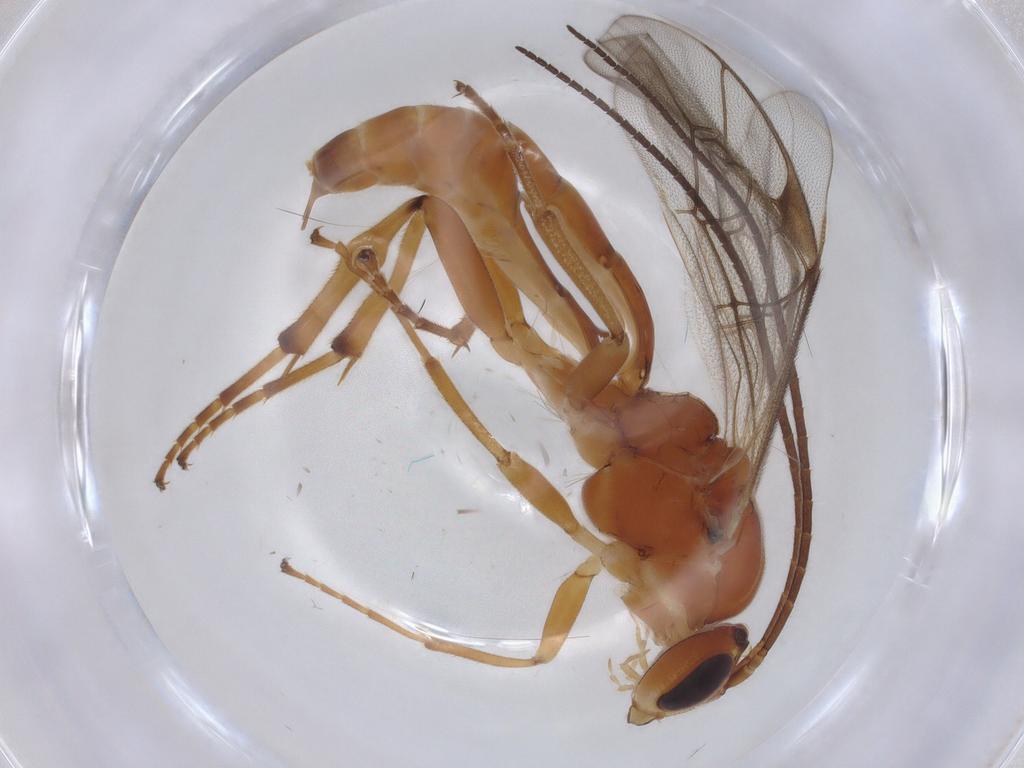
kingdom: Animalia
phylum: Arthropoda
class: Insecta
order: Hymenoptera
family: Ichneumonidae
